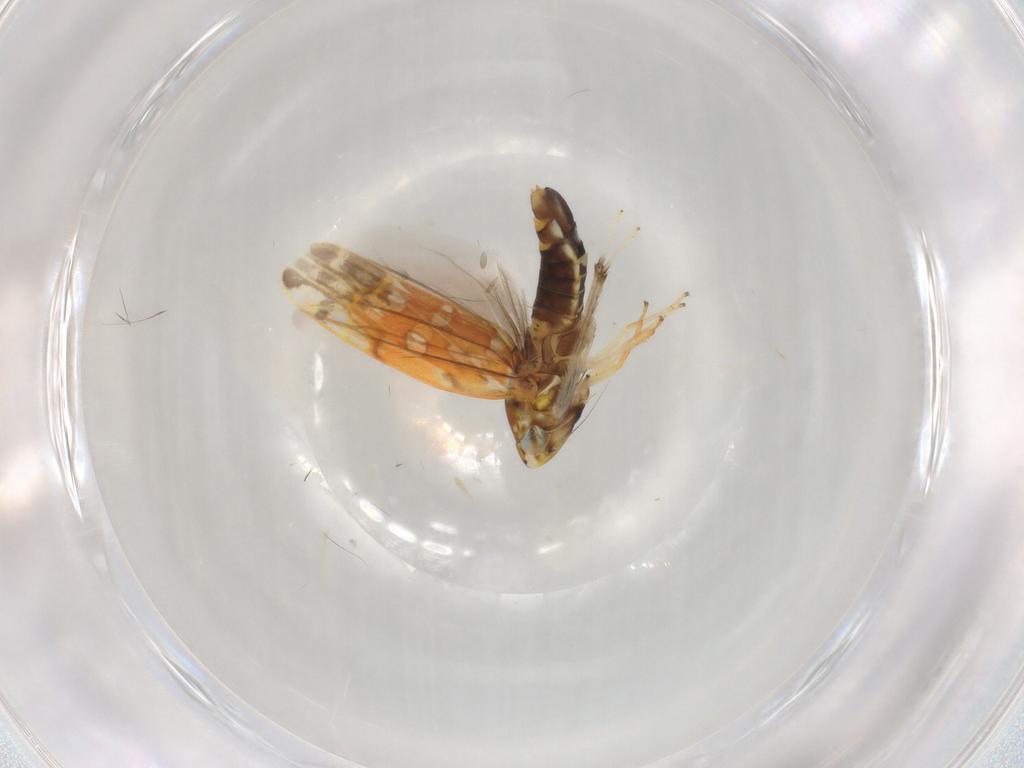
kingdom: Animalia
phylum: Arthropoda
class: Insecta
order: Hemiptera
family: Cicadellidae
